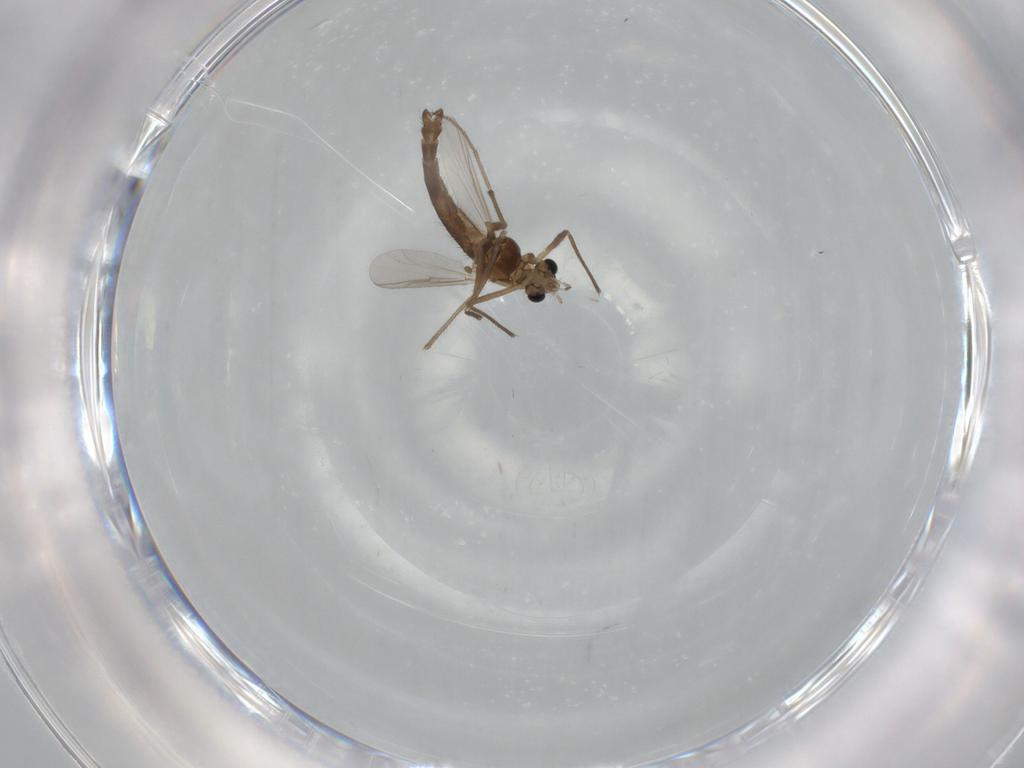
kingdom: Animalia
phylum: Arthropoda
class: Insecta
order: Diptera
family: Chironomidae
